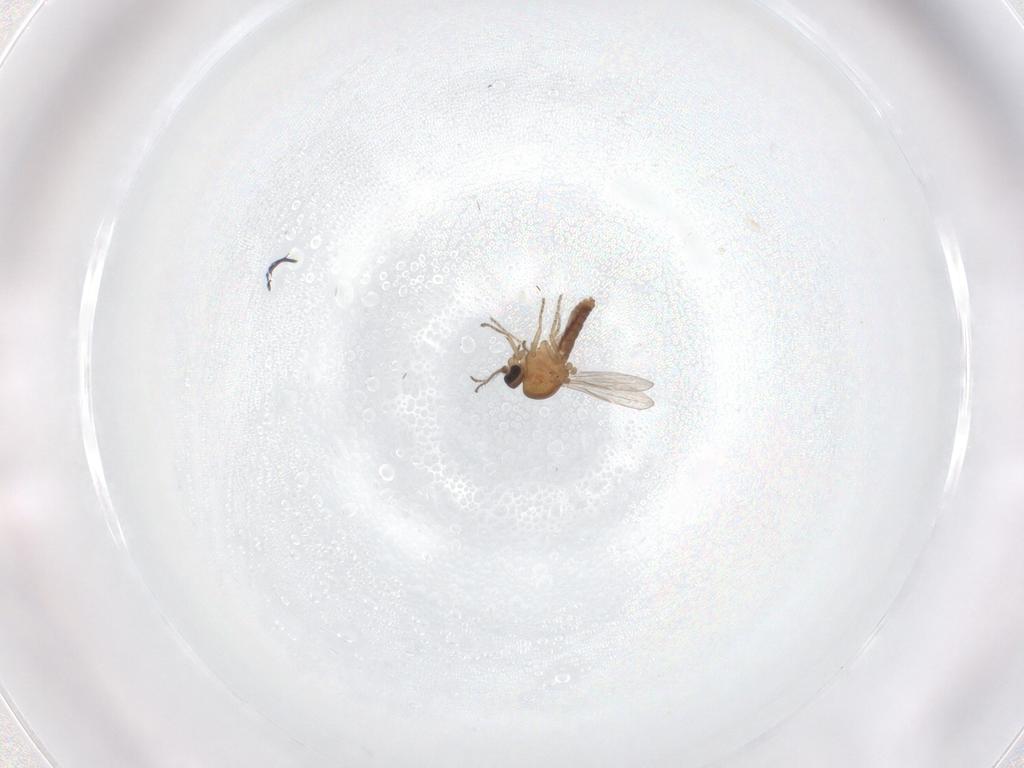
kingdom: Animalia
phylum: Arthropoda
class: Insecta
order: Diptera
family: Ceratopogonidae
